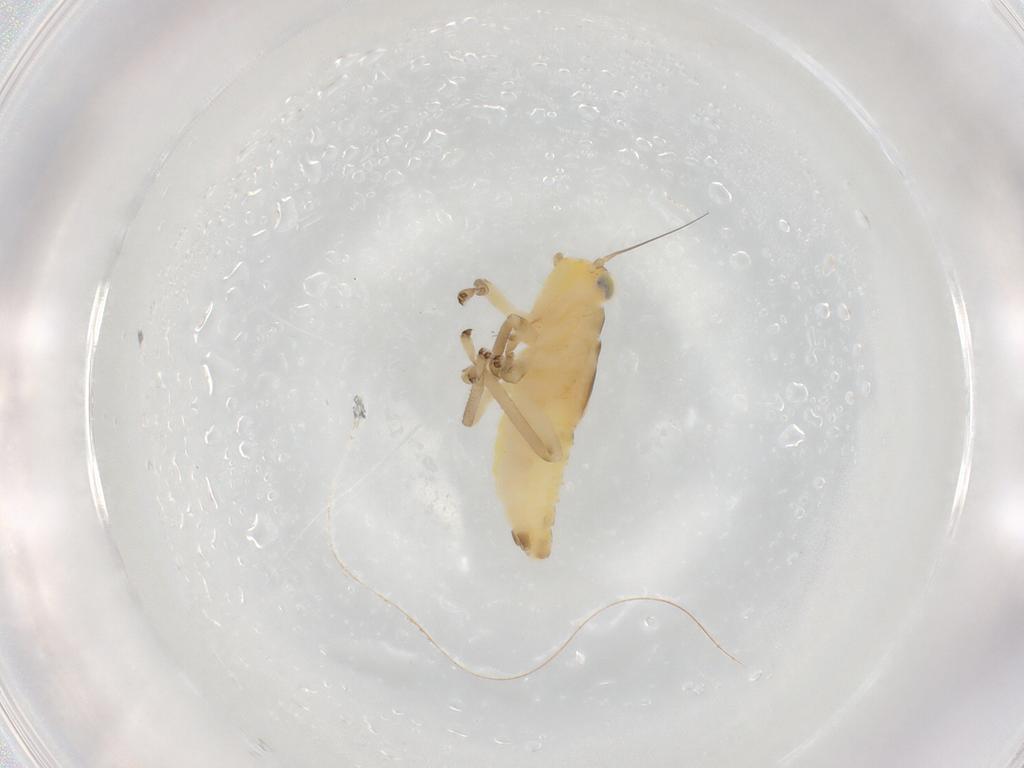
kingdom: Animalia
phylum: Arthropoda
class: Insecta
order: Hemiptera
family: Cicadellidae
